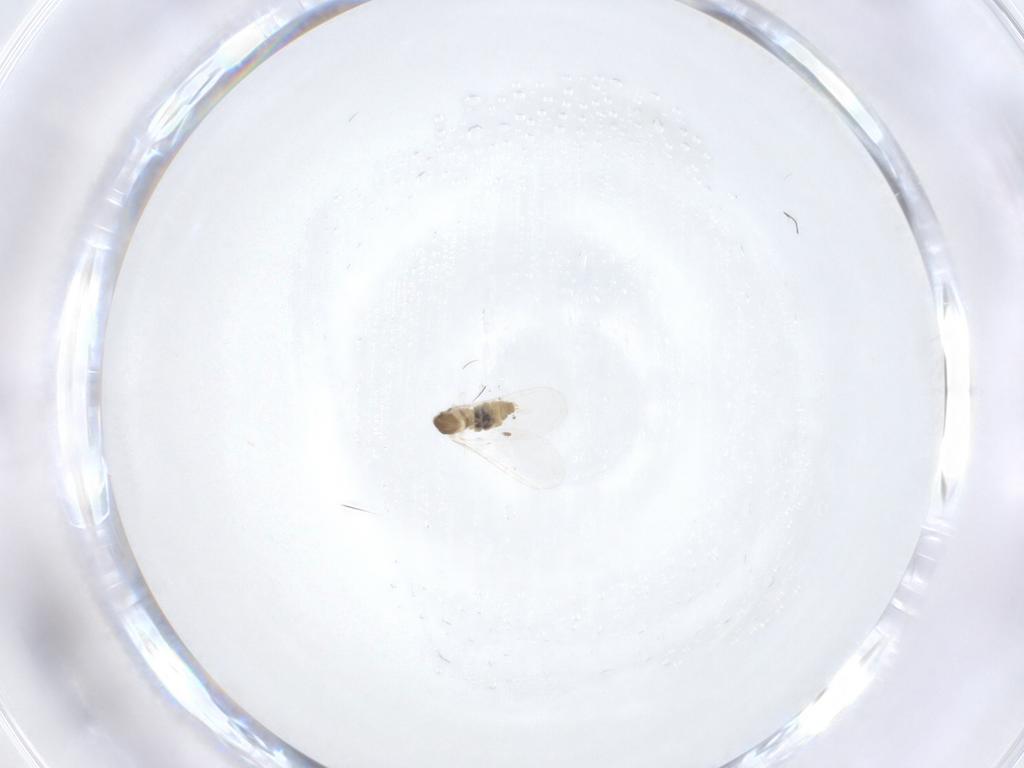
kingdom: Animalia
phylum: Arthropoda
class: Insecta
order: Diptera
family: Cecidomyiidae
